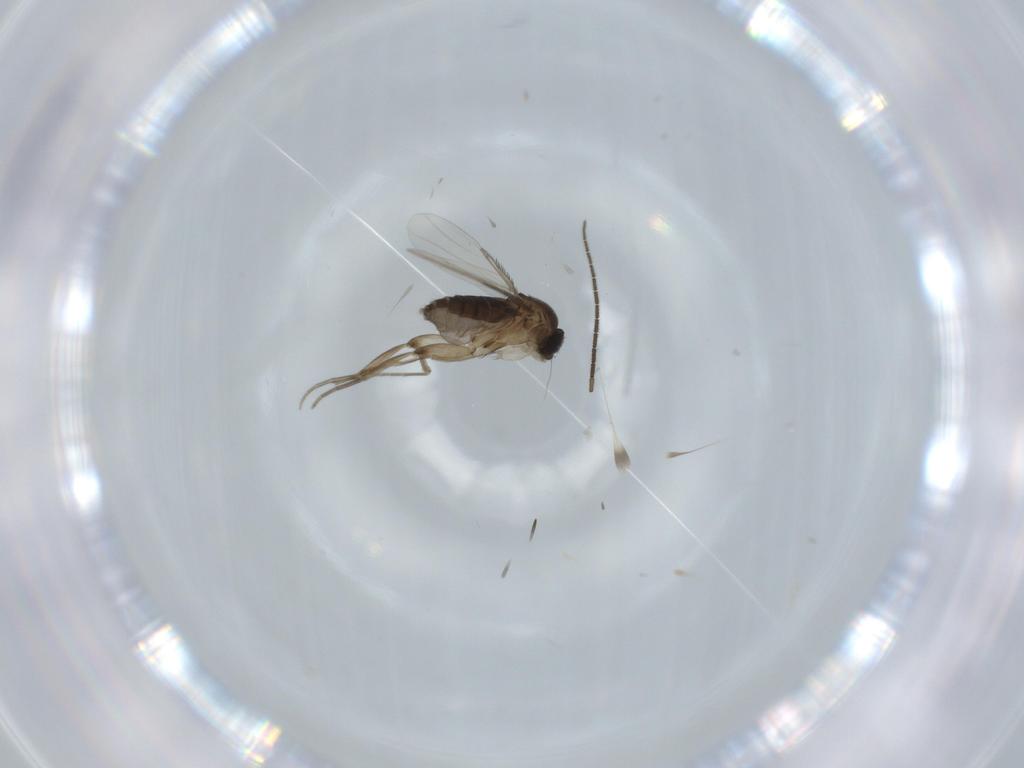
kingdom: Animalia
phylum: Arthropoda
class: Insecta
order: Diptera
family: Phoridae
